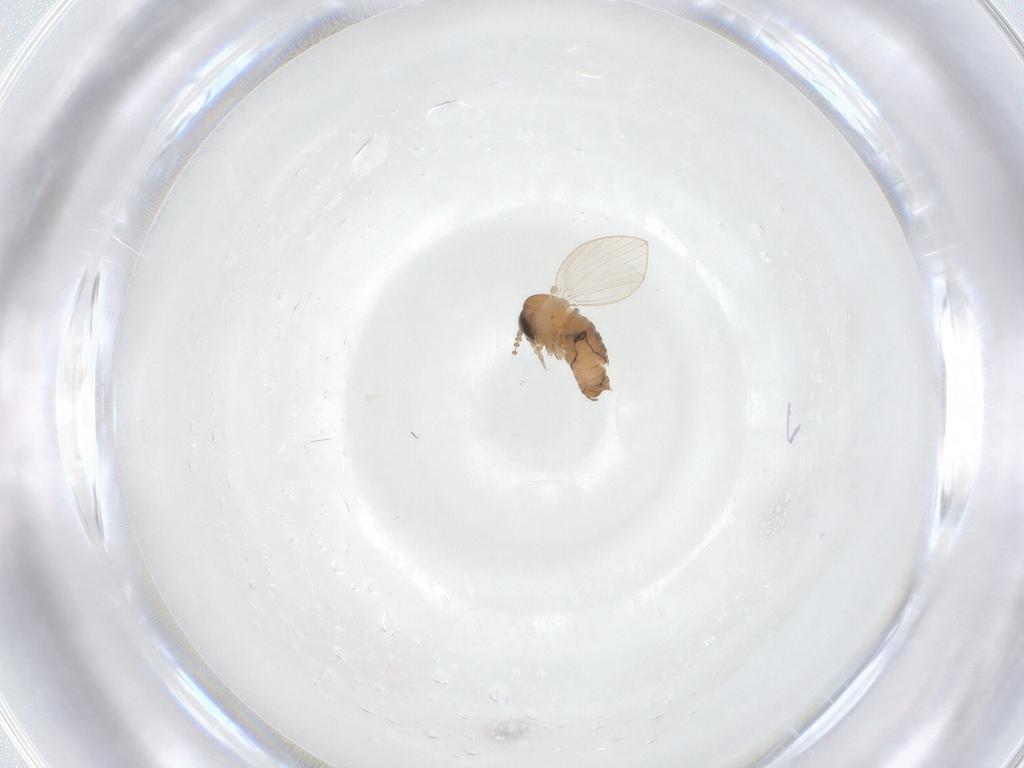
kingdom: Animalia
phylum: Arthropoda
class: Insecta
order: Diptera
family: Psychodidae
